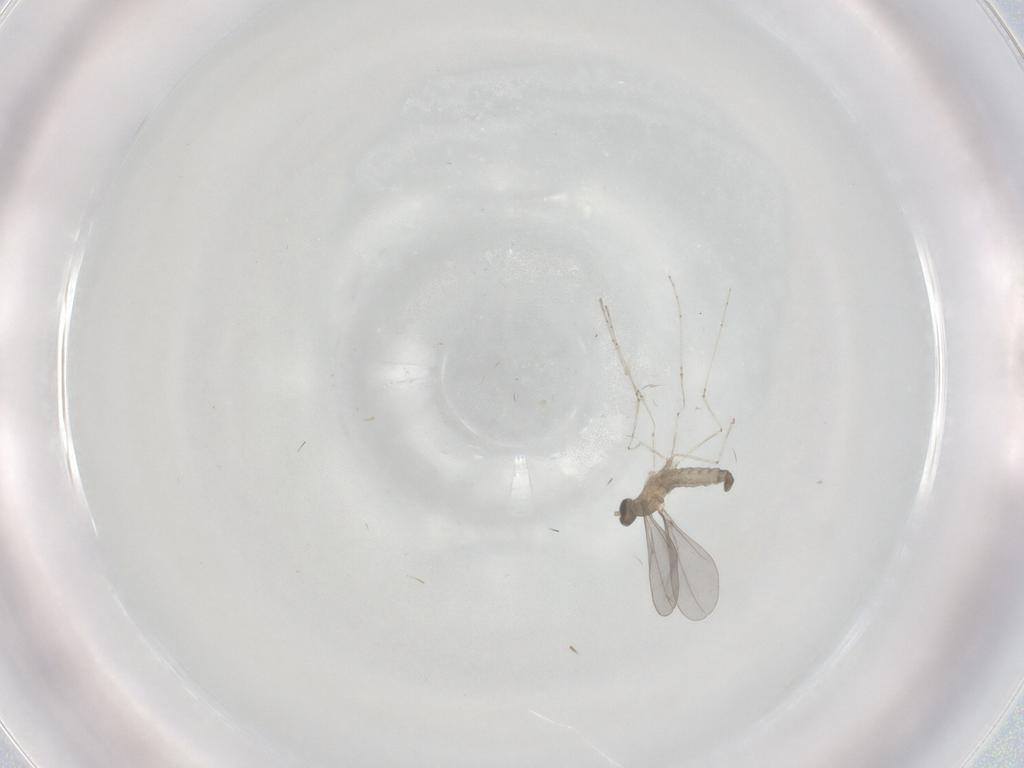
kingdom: Animalia
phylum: Arthropoda
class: Insecta
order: Diptera
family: Cecidomyiidae
